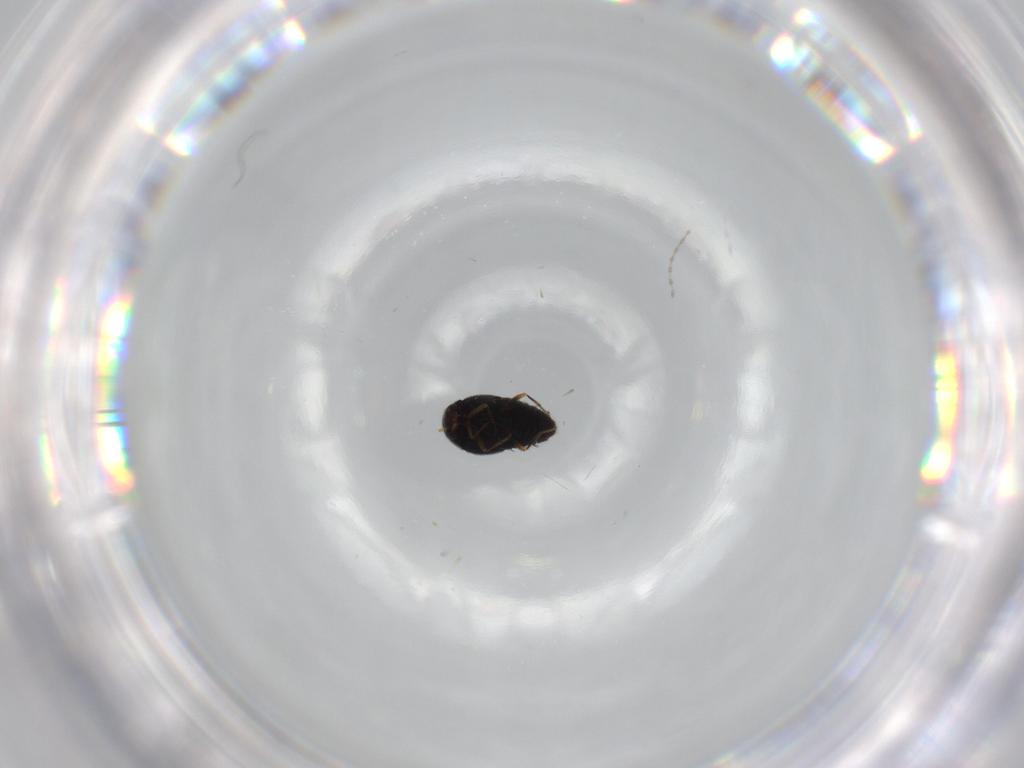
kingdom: Animalia
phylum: Arthropoda
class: Insecta
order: Coleoptera
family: Staphylinidae
